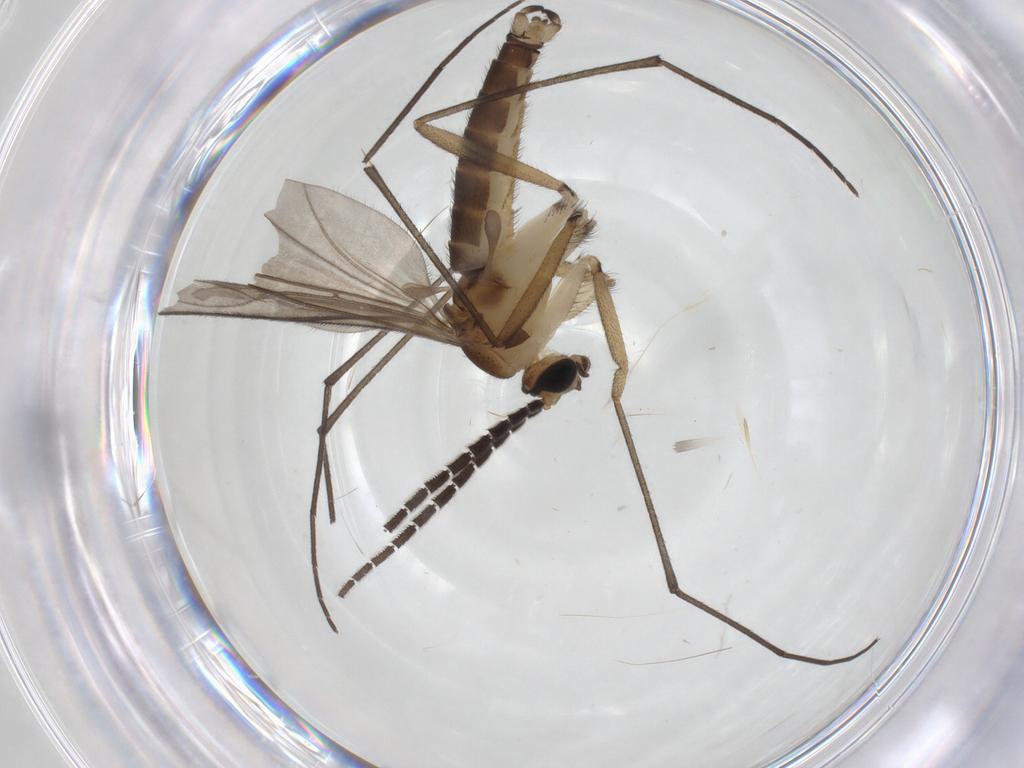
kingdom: Animalia
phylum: Arthropoda
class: Insecta
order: Diptera
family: Sciaridae
